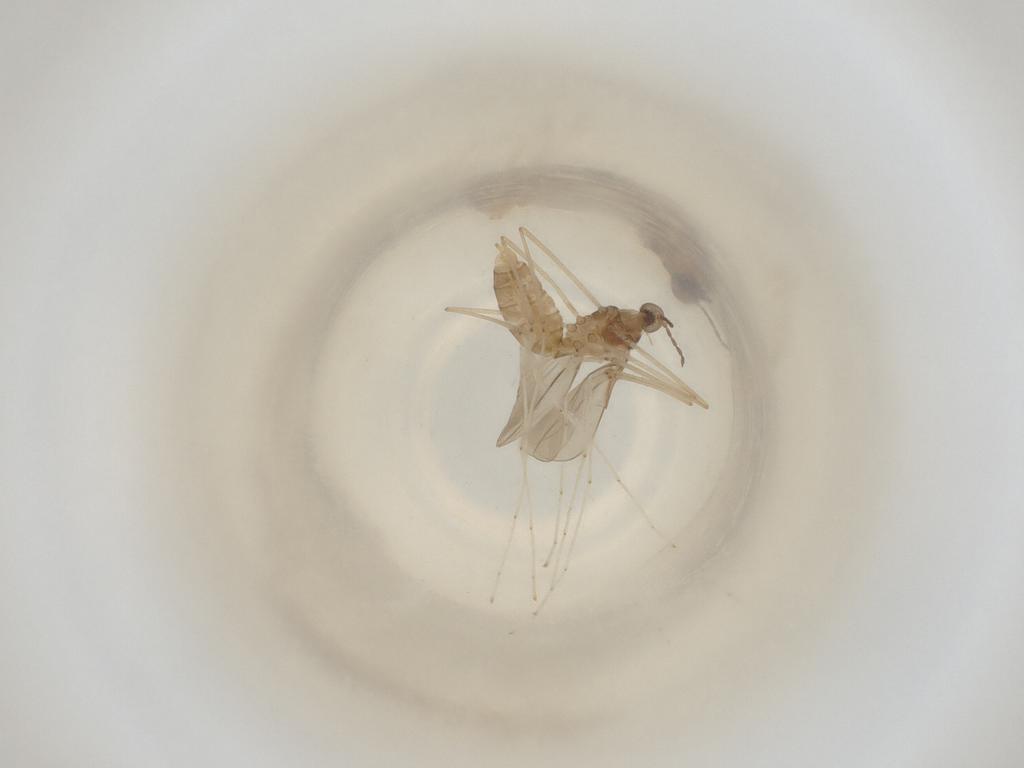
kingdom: Animalia
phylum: Arthropoda
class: Insecta
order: Diptera
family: Cecidomyiidae
